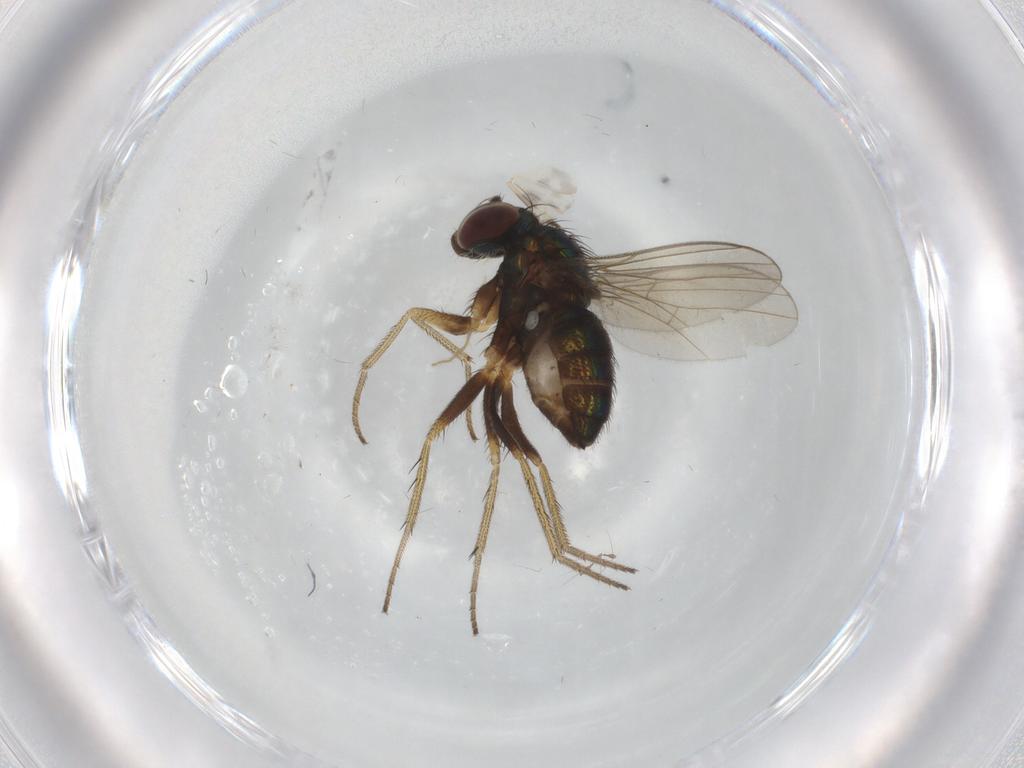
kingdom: Animalia
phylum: Arthropoda
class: Insecta
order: Diptera
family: Dolichopodidae
